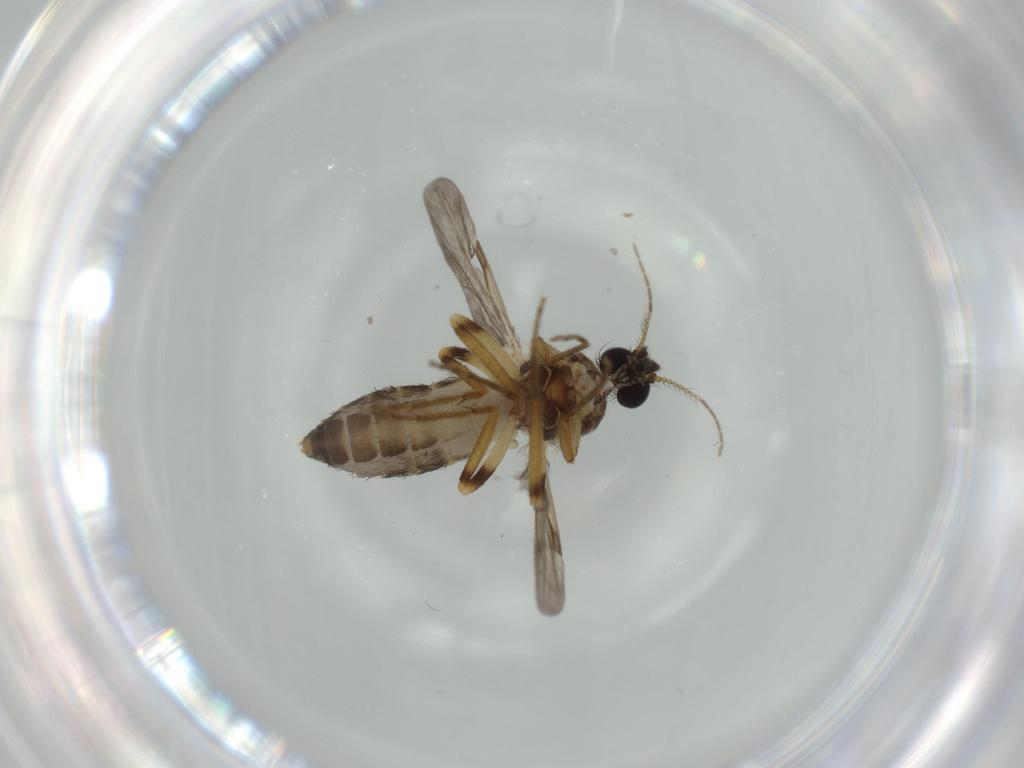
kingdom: Animalia
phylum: Arthropoda
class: Insecta
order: Diptera
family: Ceratopogonidae
